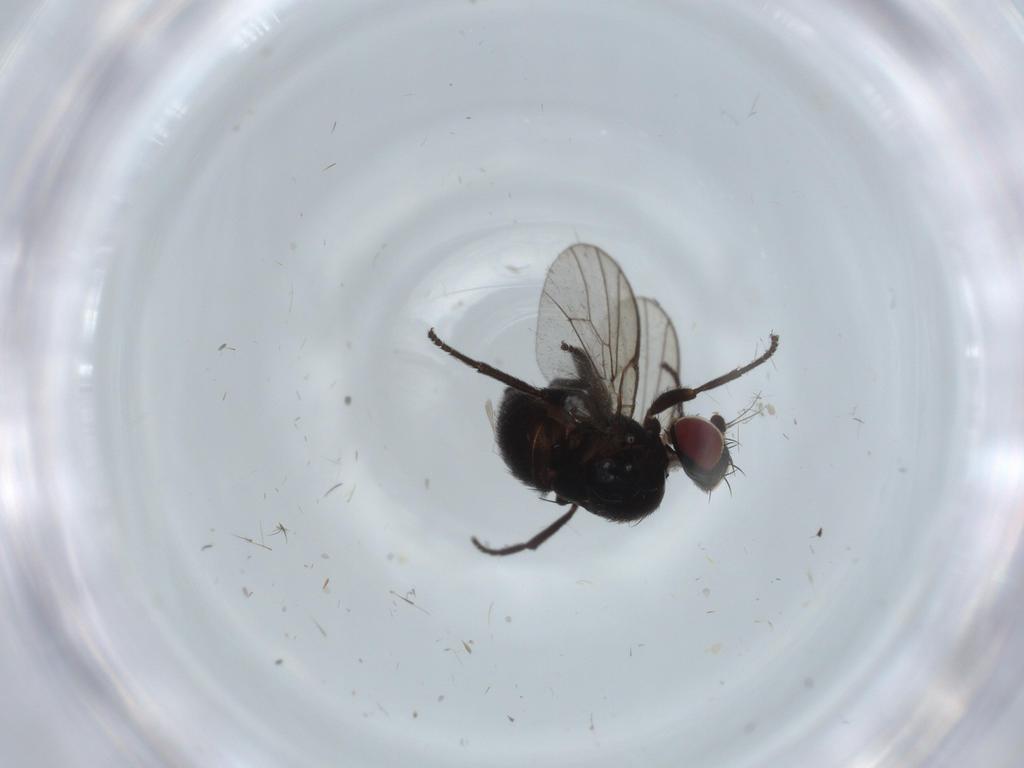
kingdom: Animalia
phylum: Arthropoda
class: Insecta
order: Diptera
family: Agromyzidae
